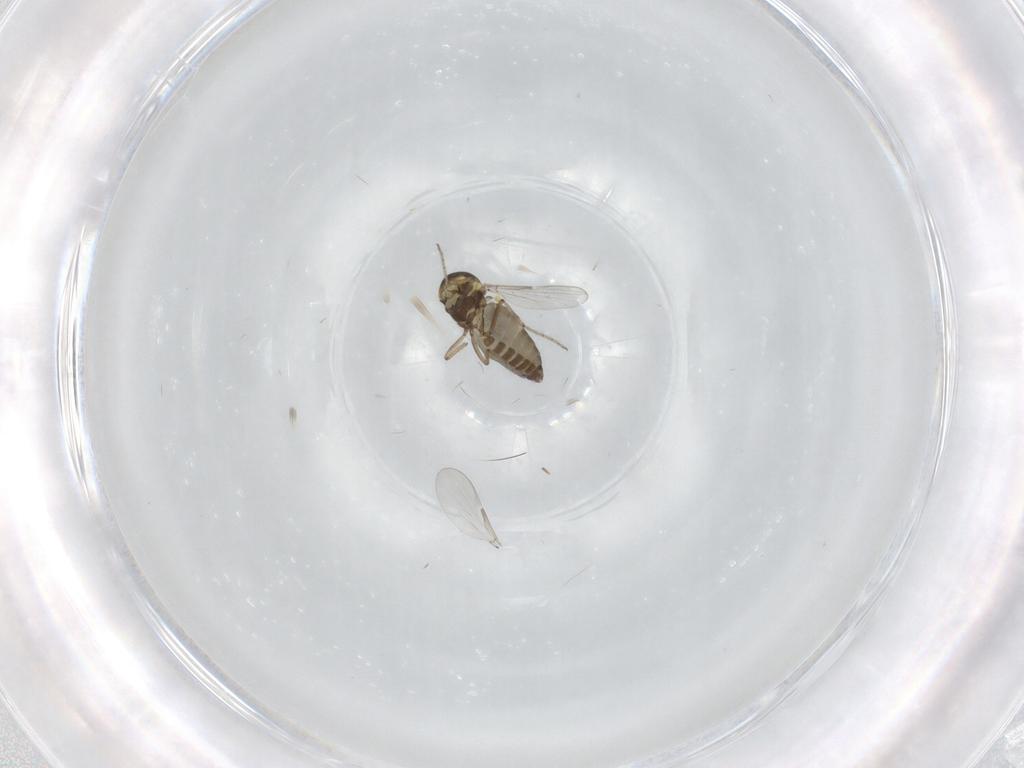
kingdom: Animalia
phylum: Arthropoda
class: Insecta
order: Diptera
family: Ceratopogonidae
